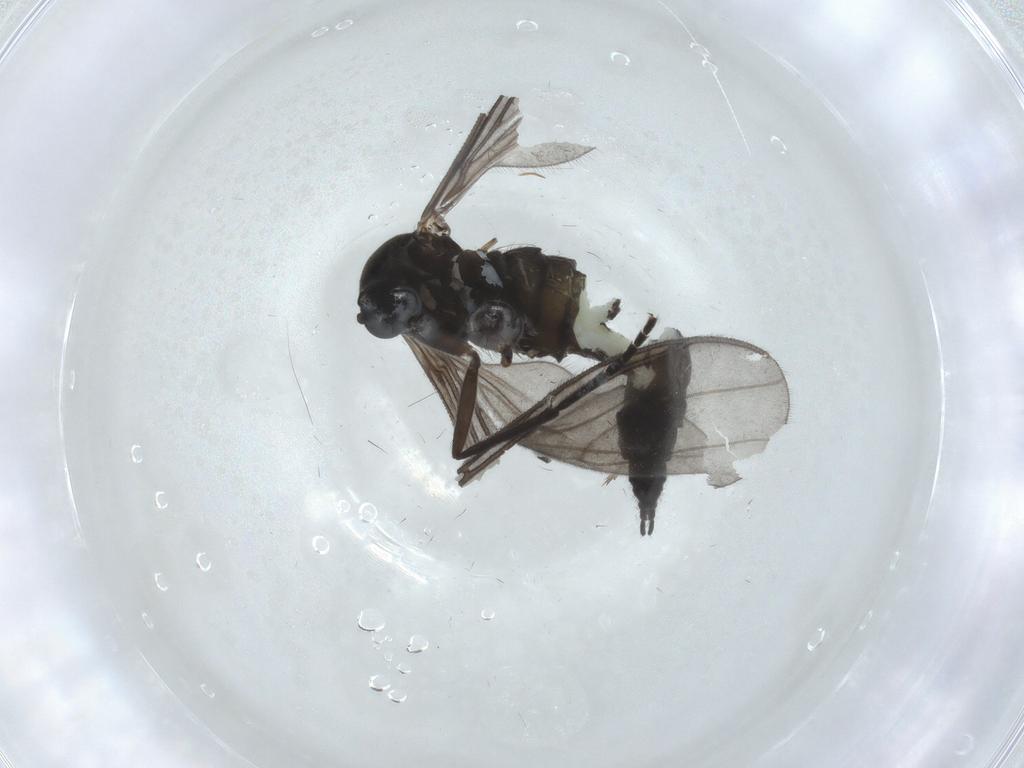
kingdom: Animalia
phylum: Arthropoda
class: Insecta
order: Diptera
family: Sciaridae
